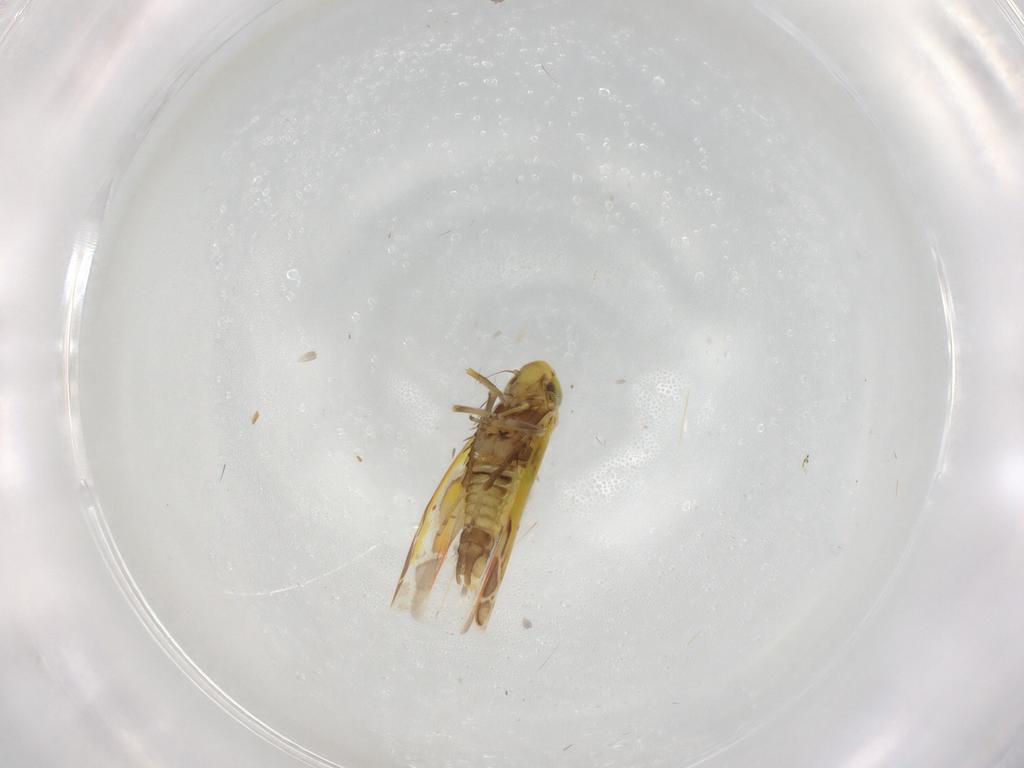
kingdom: Animalia
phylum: Arthropoda
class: Insecta
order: Hemiptera
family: Cicadellidae
